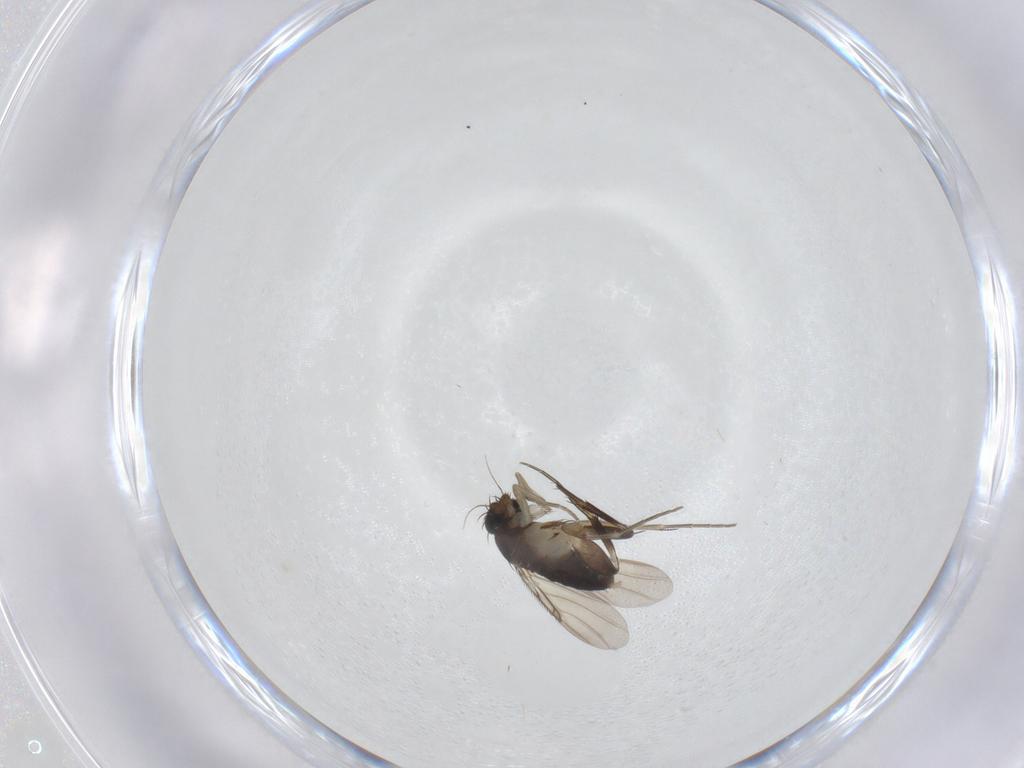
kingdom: Animalia
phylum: Arthropoda
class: Insecta
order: Diptera
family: Phoridae
